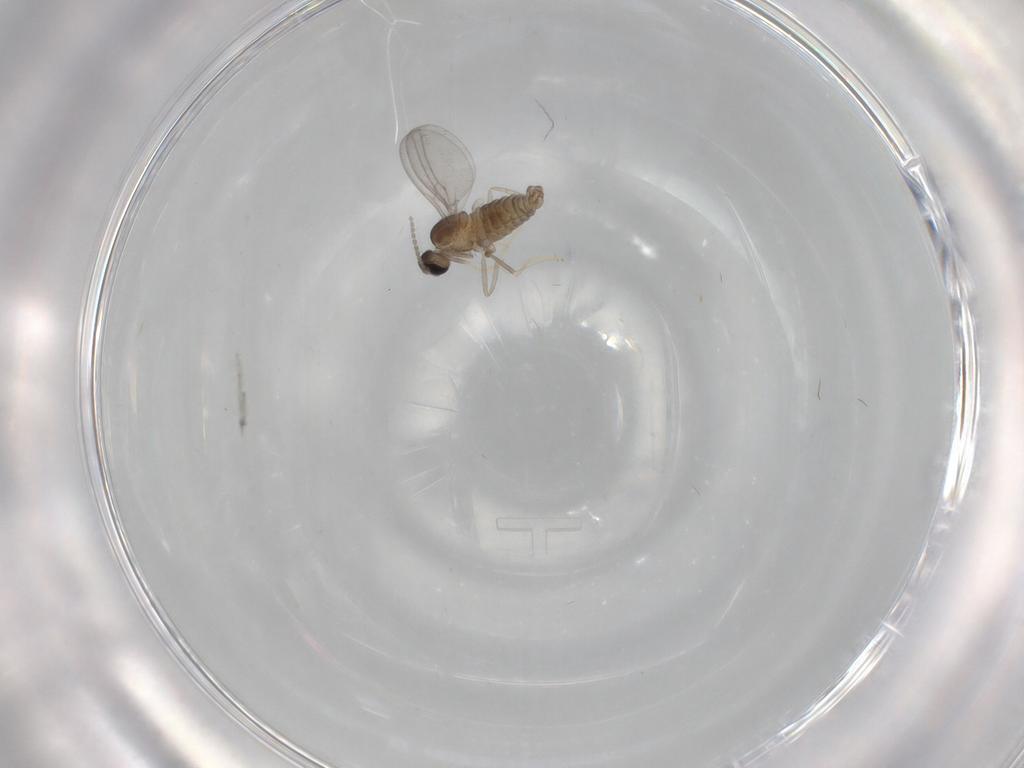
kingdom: Animalia
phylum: Arthropoda
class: Insecta
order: Diptera
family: Cecidomyiidae
